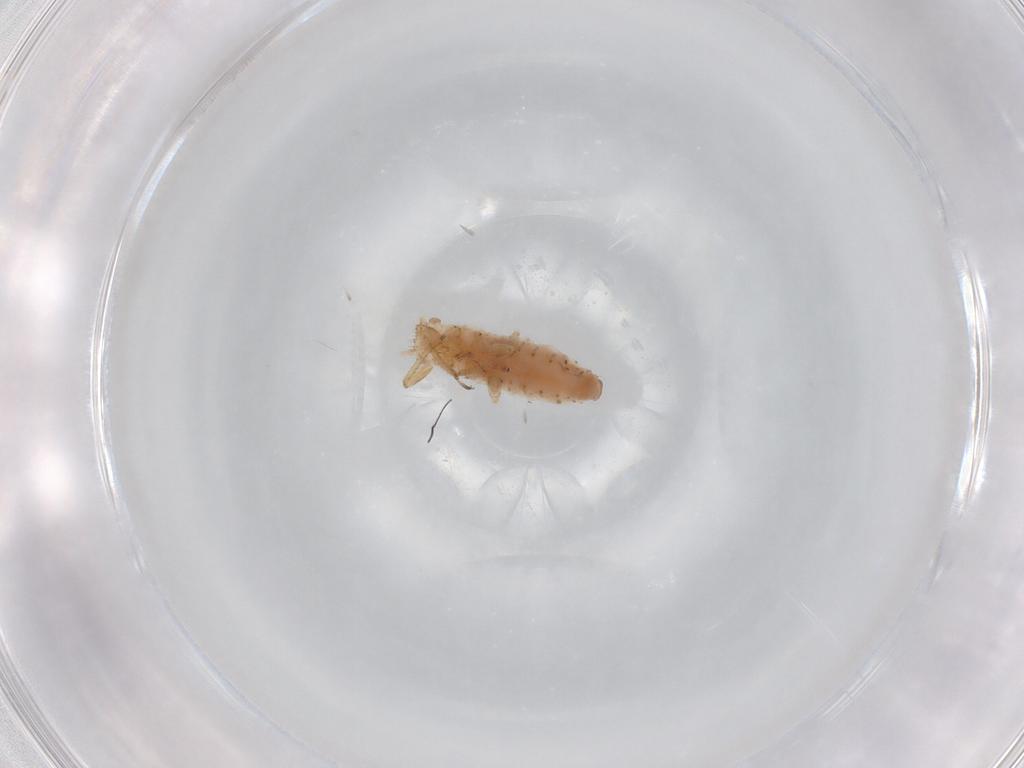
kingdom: Animalia
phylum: Arthropoda
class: Insecta
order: Hemiptera
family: Aphididae
